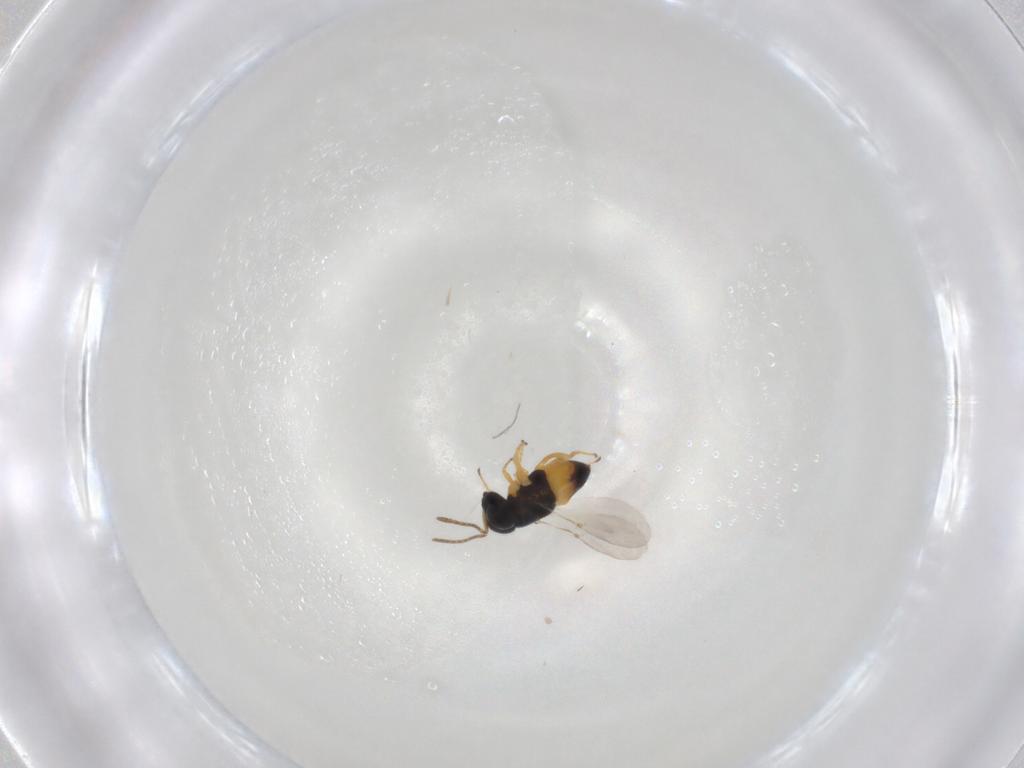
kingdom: Animalia
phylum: Arthropoda
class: Insecta
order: Hymenoptera
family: Encyrtidae
